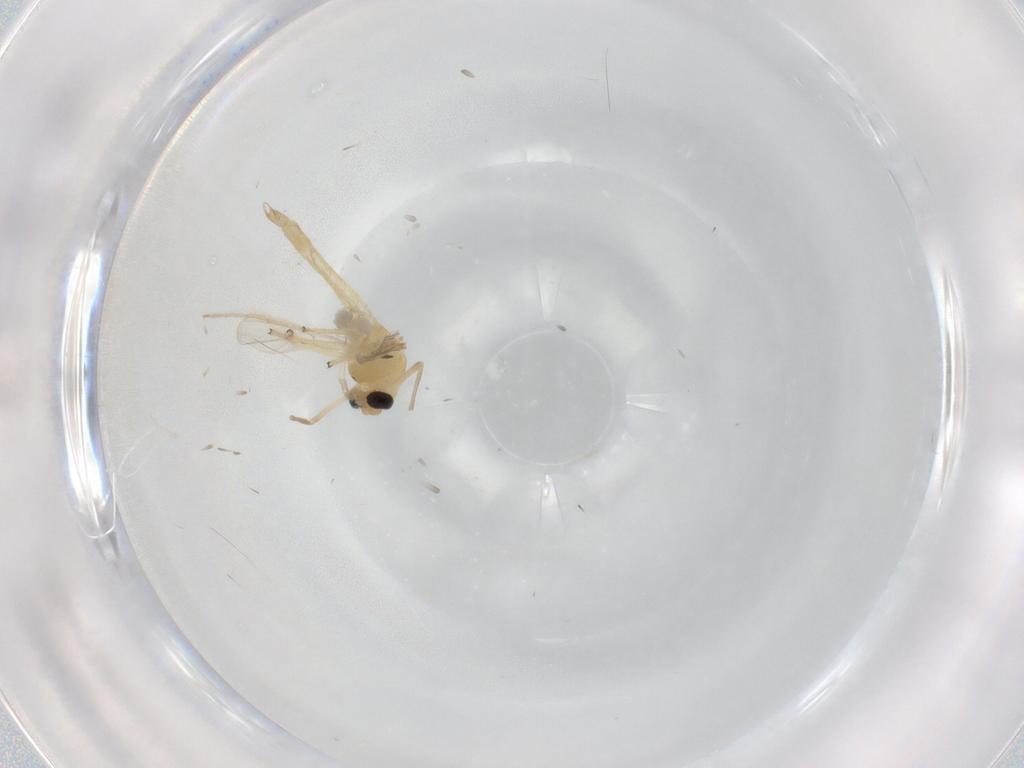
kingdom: Animalia
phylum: Arthropoda
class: Insecta
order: Diptera
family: Chironomidae
